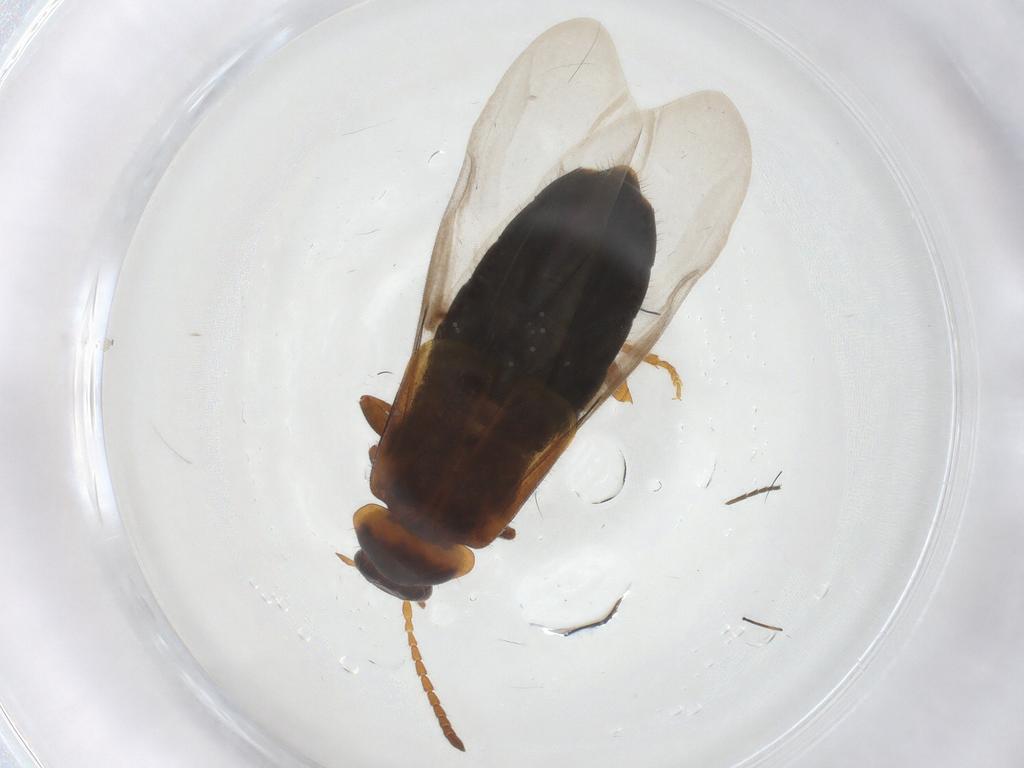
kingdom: Animalia
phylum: Arthropoda
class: Insecta
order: Coleoptera
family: Staphylinidae
